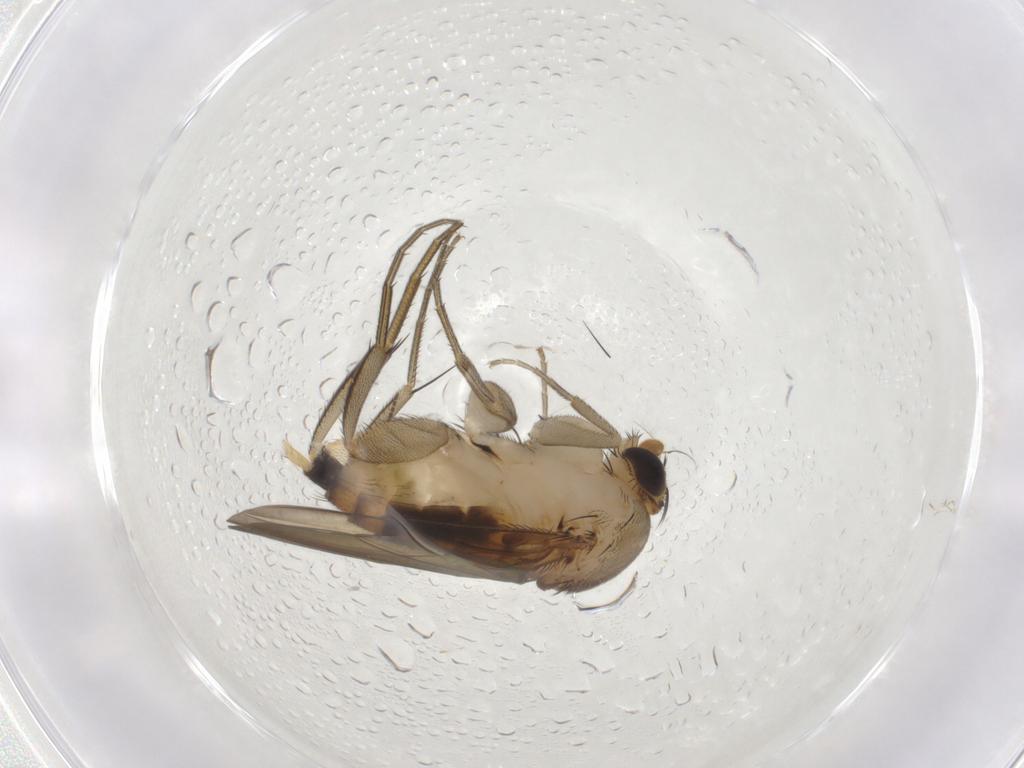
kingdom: Animalia
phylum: Arthropoda
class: Insecta
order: Diptera
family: Sciaridae
